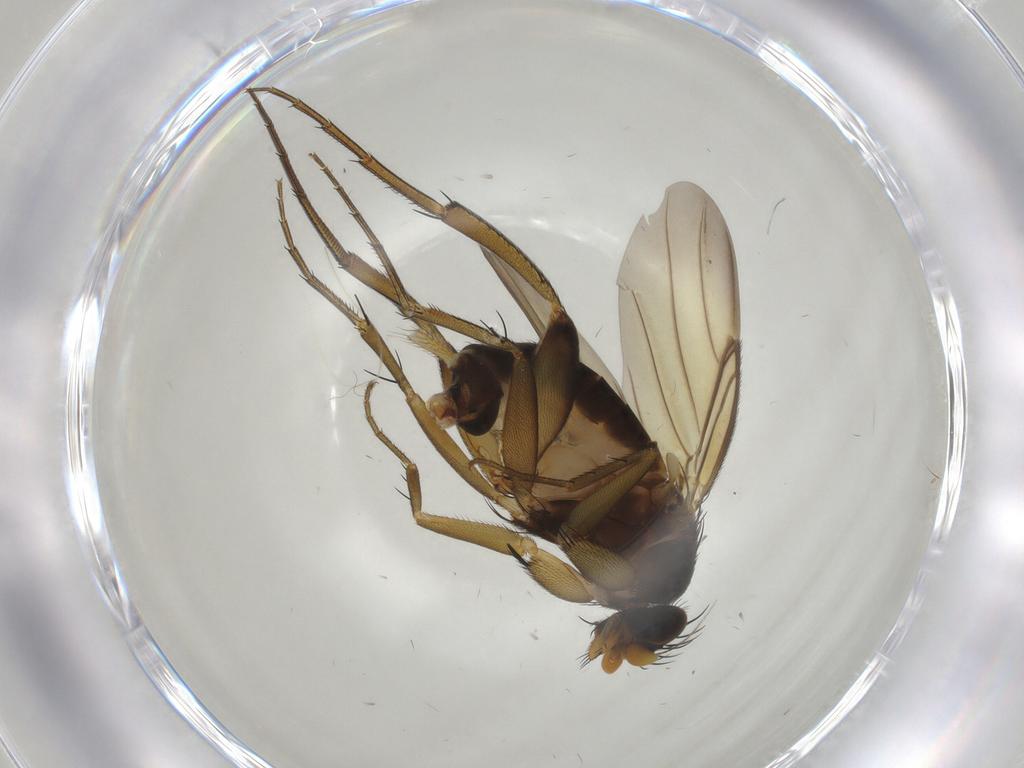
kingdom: Animalia
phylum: Arthropoda
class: Insecta
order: Diptera
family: Phoridae
